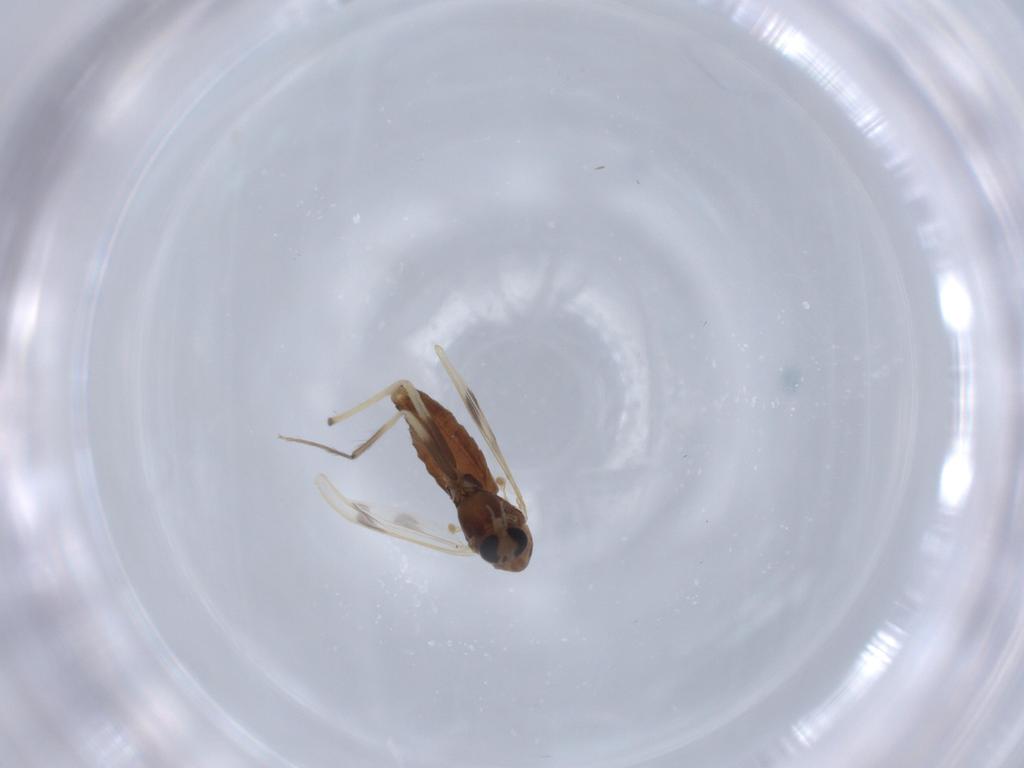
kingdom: Animalia
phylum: Arthropoda
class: Insecta
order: Diptera
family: Chironomidae
